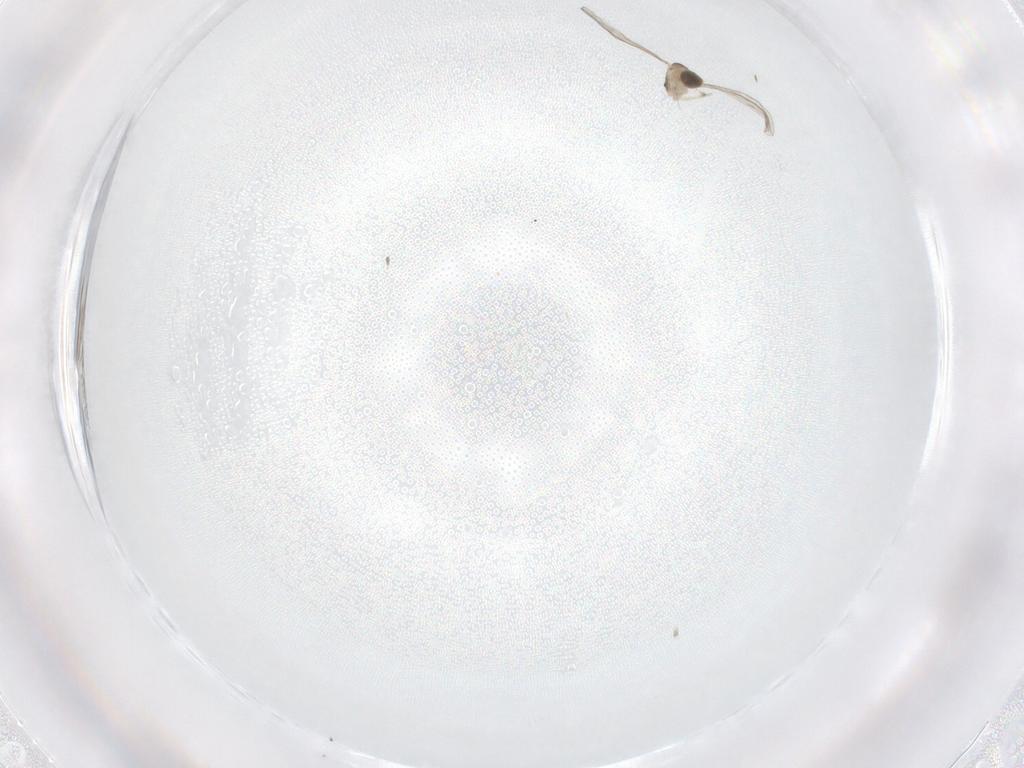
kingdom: Animalia
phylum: Arthropoda
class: Insecta
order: Diptera
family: Cecidomyiidae
